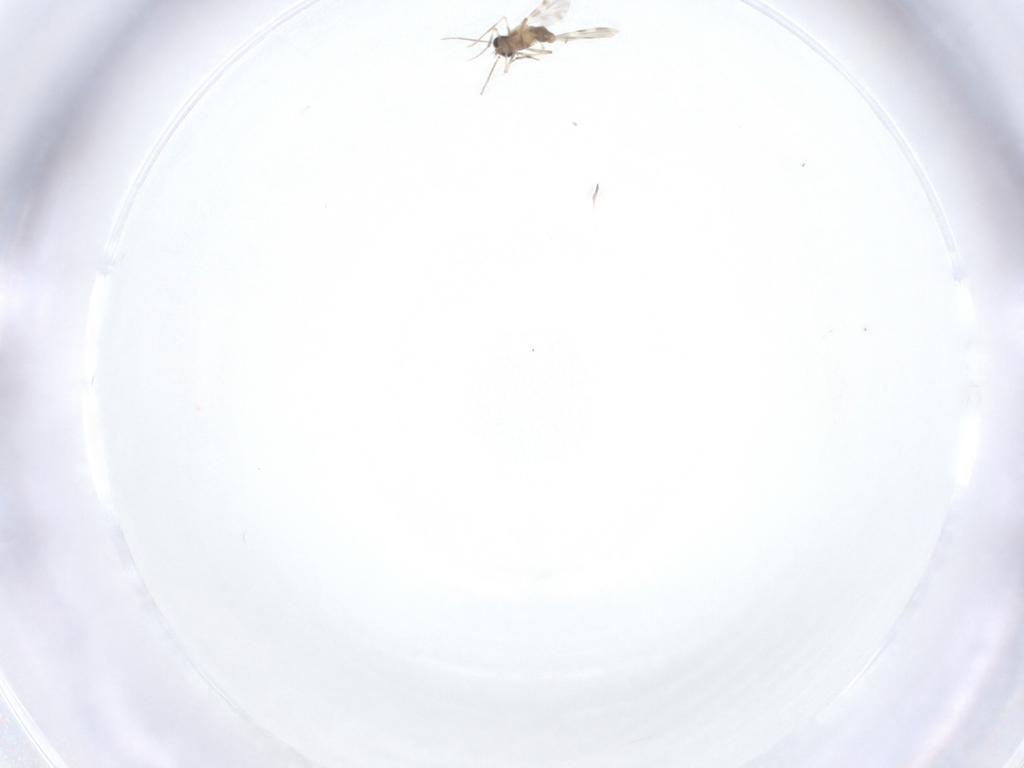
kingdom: Animalia
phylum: Arthropoda
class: Insecta
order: Diptera
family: Ceratopogonidae
